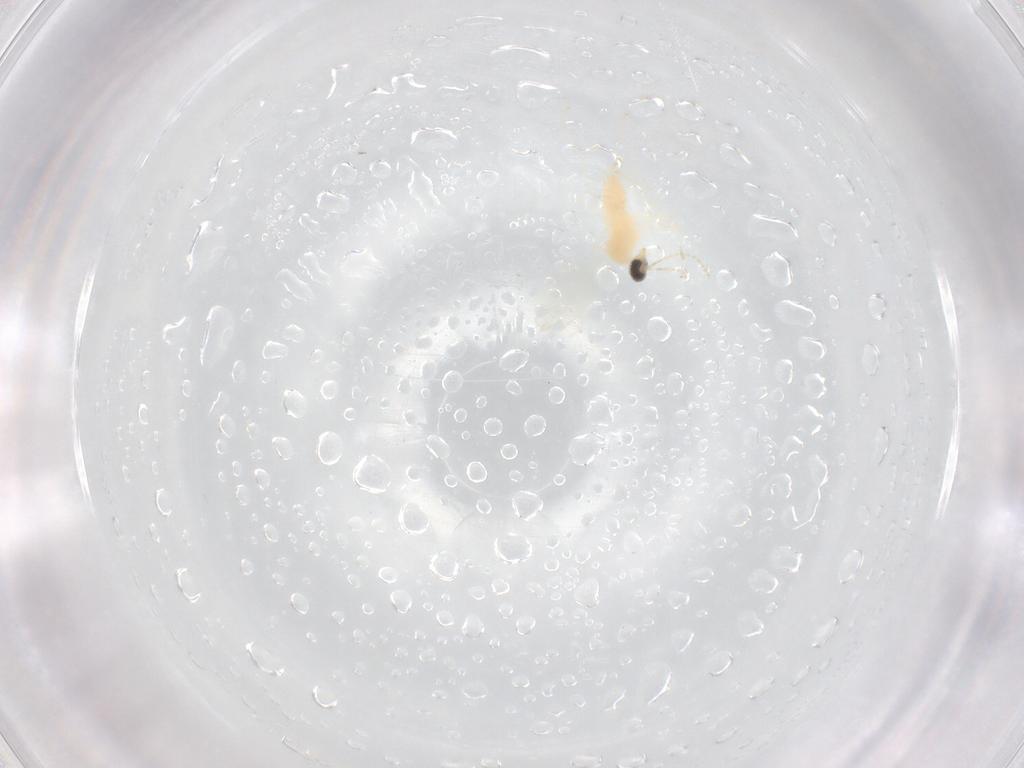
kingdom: Animalia
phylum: Arthropoda
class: Insecta
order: Diptera
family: Cecidomyiidae
